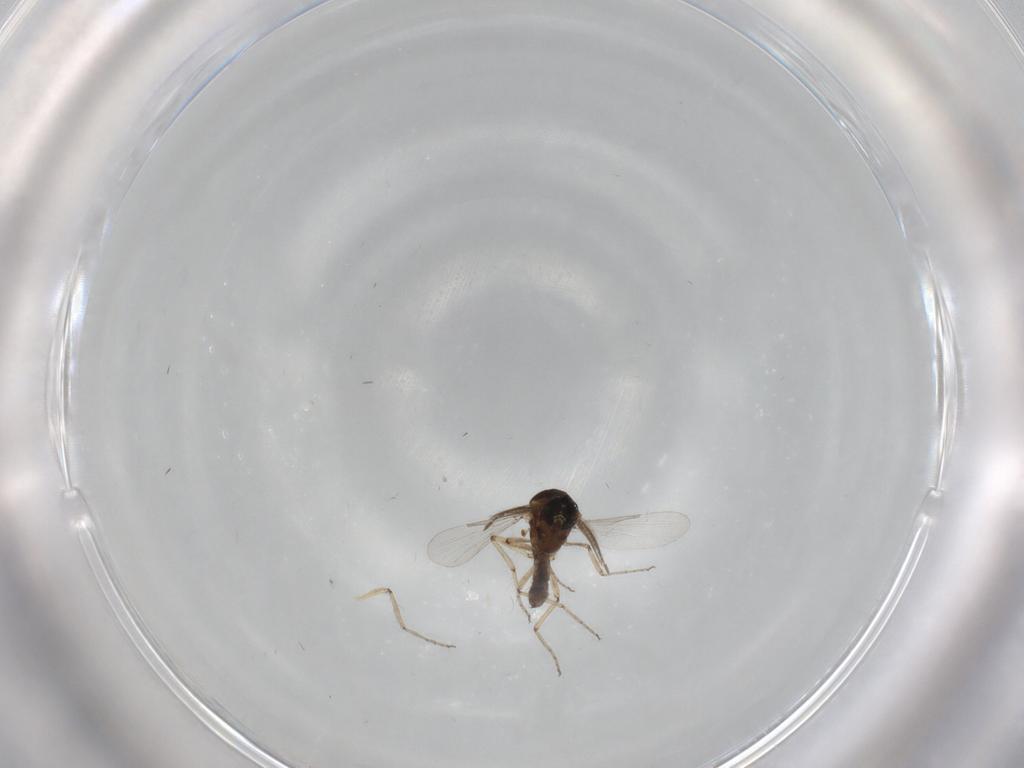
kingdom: Animalia
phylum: Arthropoda
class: Insecta
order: Diptera
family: Ceratopogonidae
